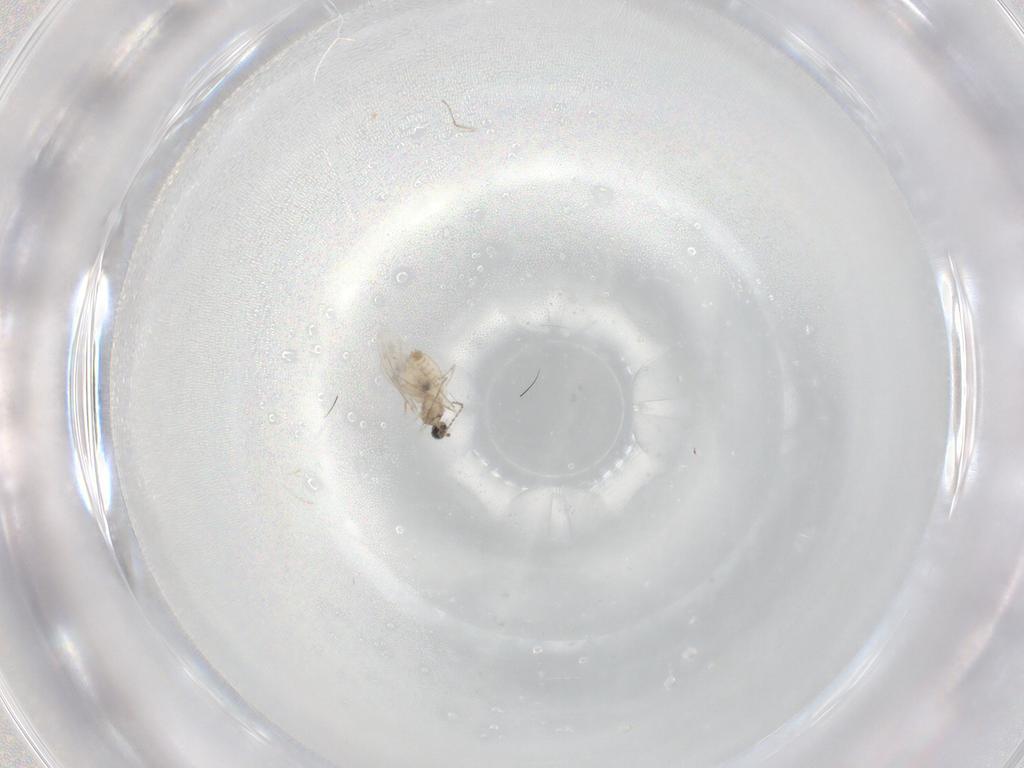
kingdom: Animalia
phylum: Arthropoda
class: Insecta
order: Diptera
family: Cecidomyiidae
